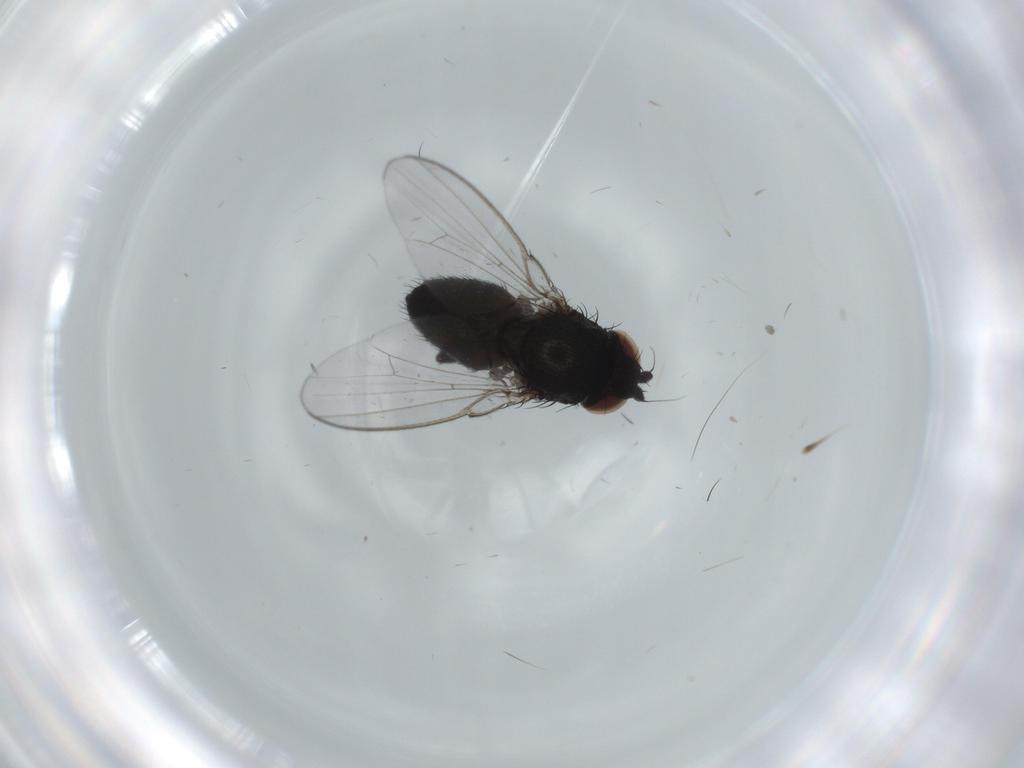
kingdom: Animalia
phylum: Arthropoda
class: Insecta
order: Diptera
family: Milichiidae
